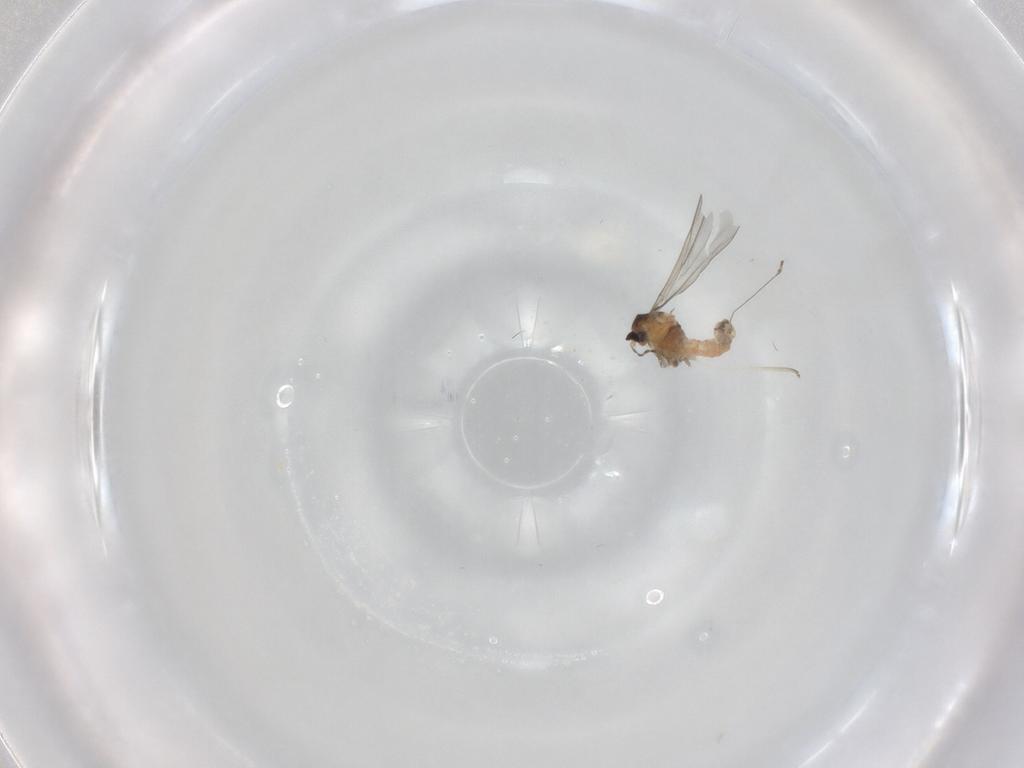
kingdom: Animalia
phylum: Arthropoda
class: Insecta
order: Diptera
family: Cecidomyiidae
